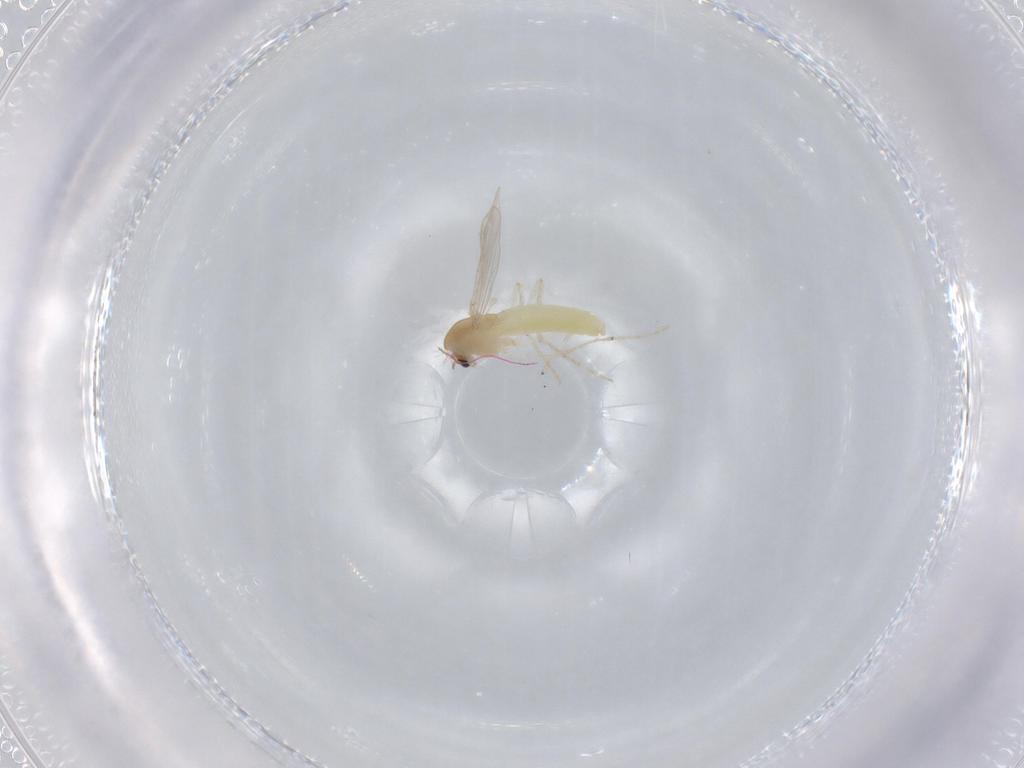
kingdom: Animalia
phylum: Arthropoda
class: Insecta
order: Diptera
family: Chironomidae
